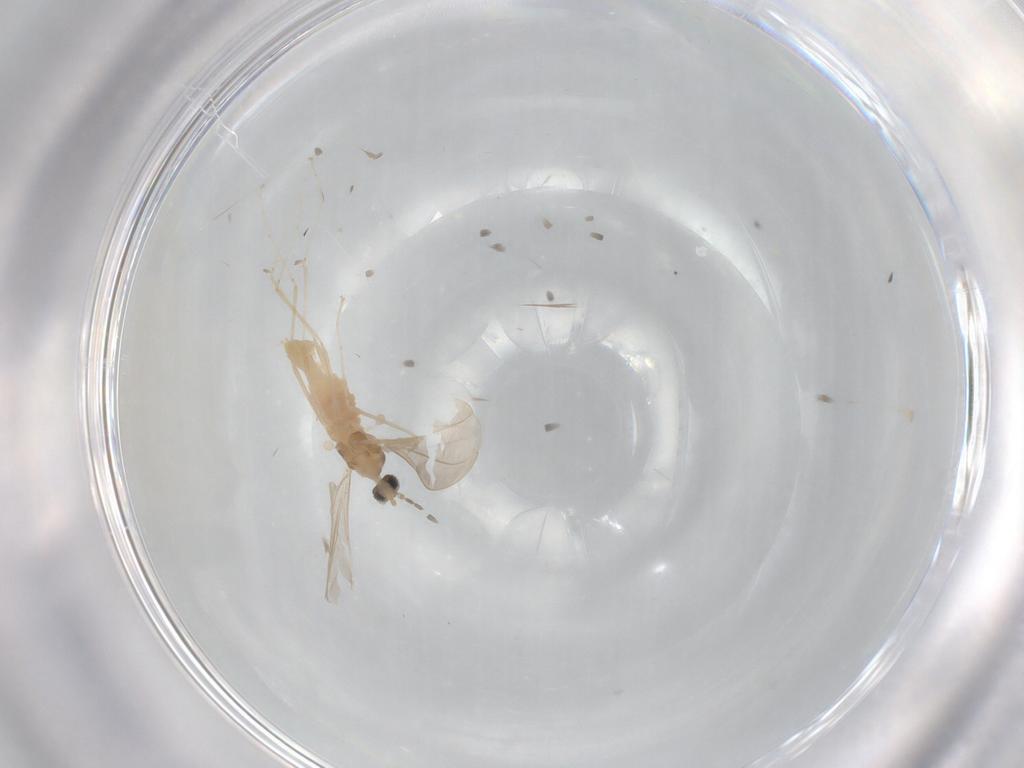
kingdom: Animalia
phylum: Arthropoda
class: Insecta
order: Diptera
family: Cecidomyiidae
